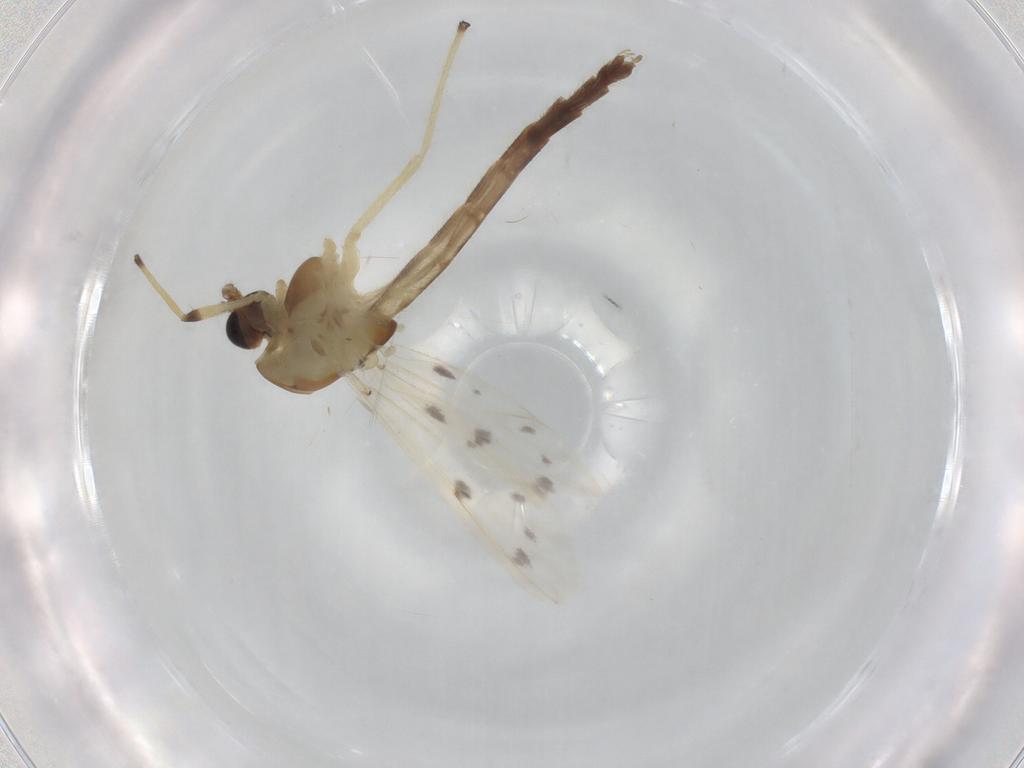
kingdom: Animalia
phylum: Arthropoda
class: Insecta
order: Diptera
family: Chironomidae
